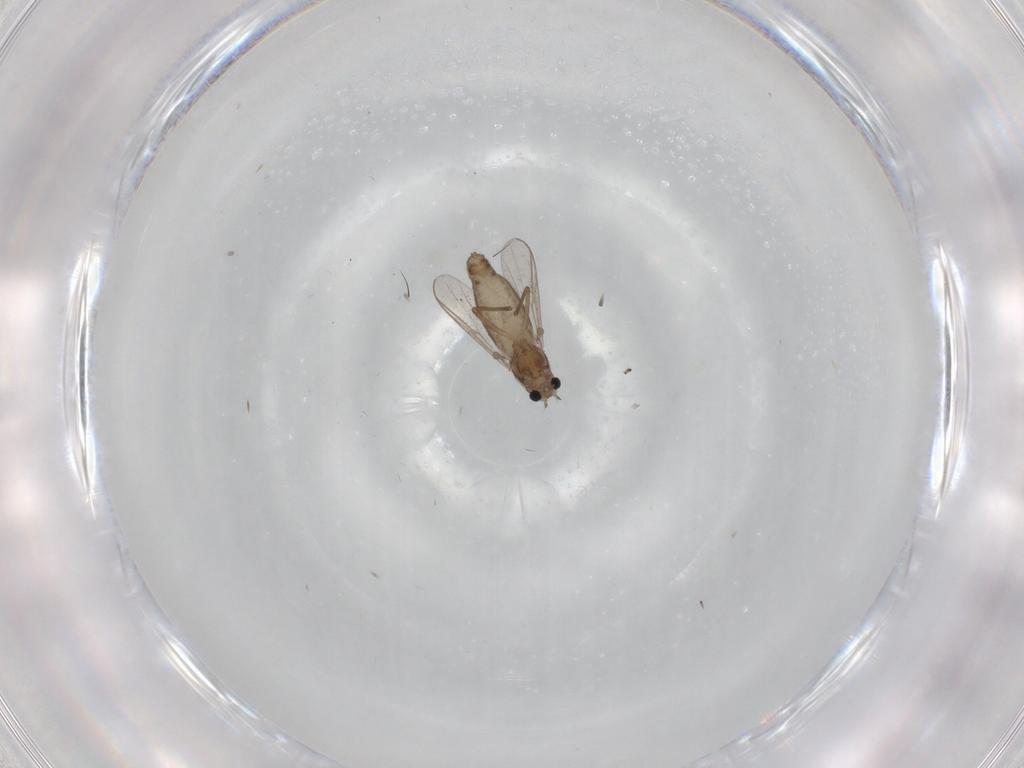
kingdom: Animalia
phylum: Arthropoda
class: Insecta
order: Diptera
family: Chironomidae
